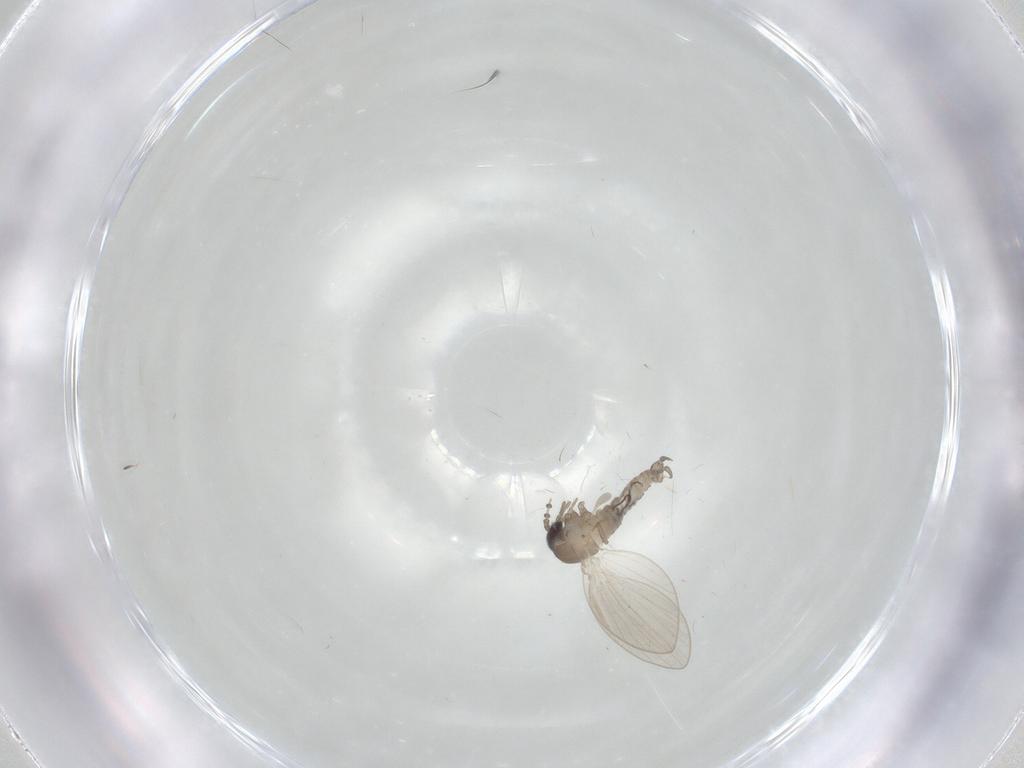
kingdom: Animalia
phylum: Arthropoda
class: Insecta
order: Diptera
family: Psychodidae
